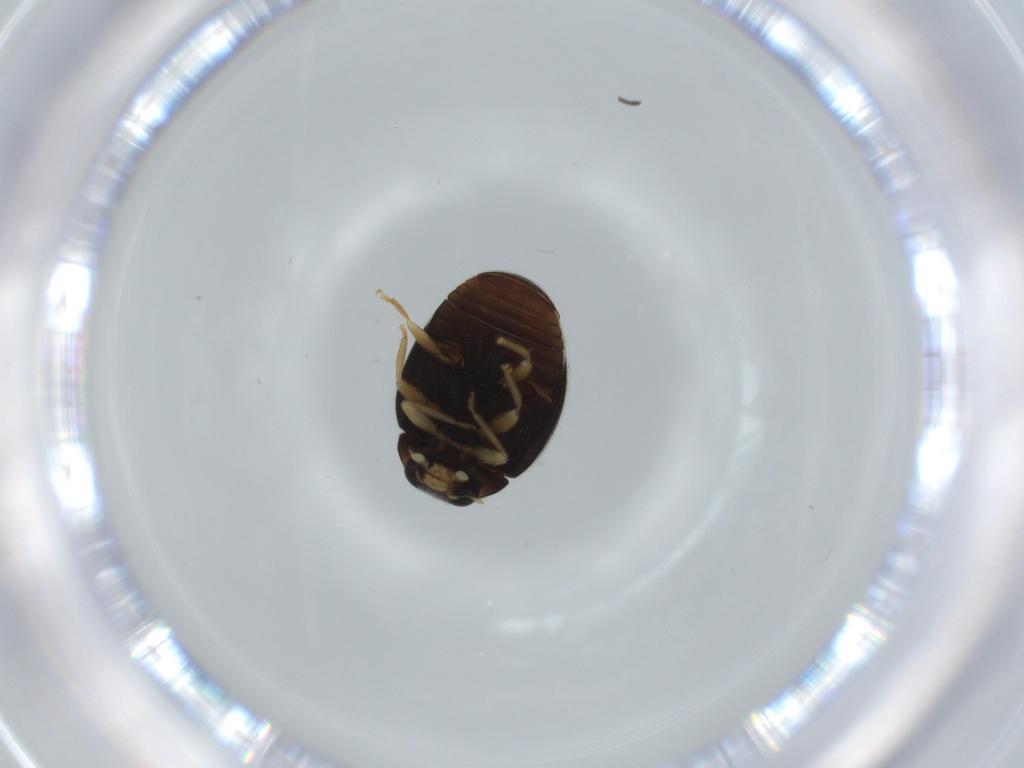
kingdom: Animalia
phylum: Arthropoda
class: Insecta
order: Coleoptera
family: Coccinellidae
